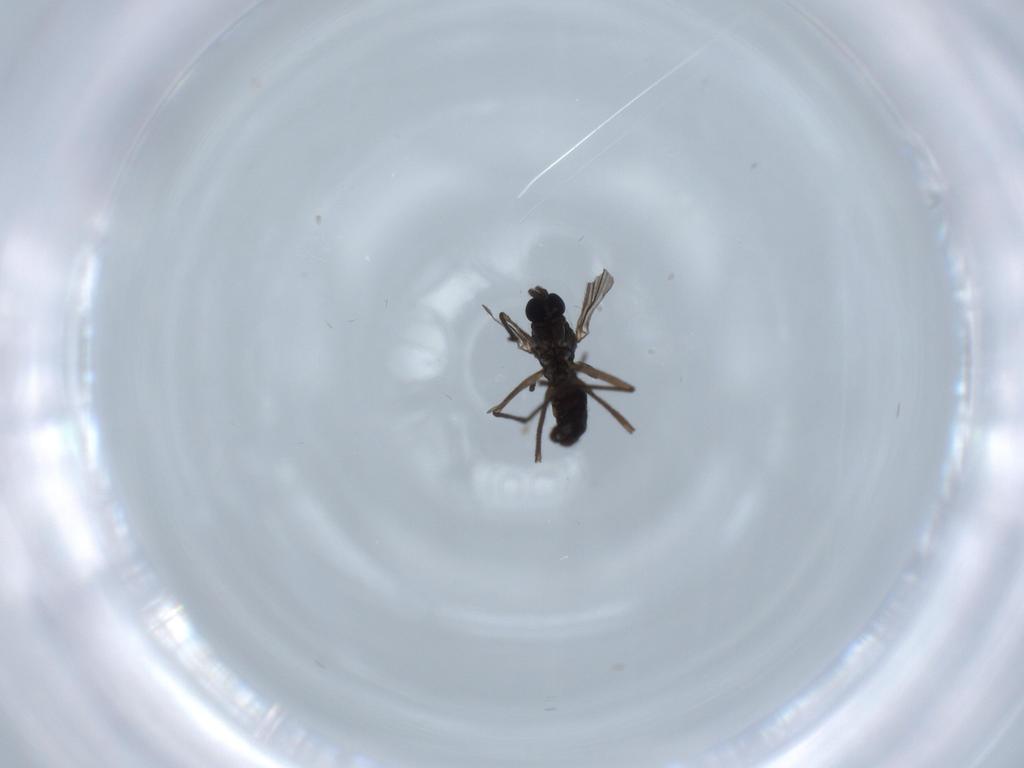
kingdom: Animalia
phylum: Arthropoda
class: Insecta
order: Diptera
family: Sciaridae
